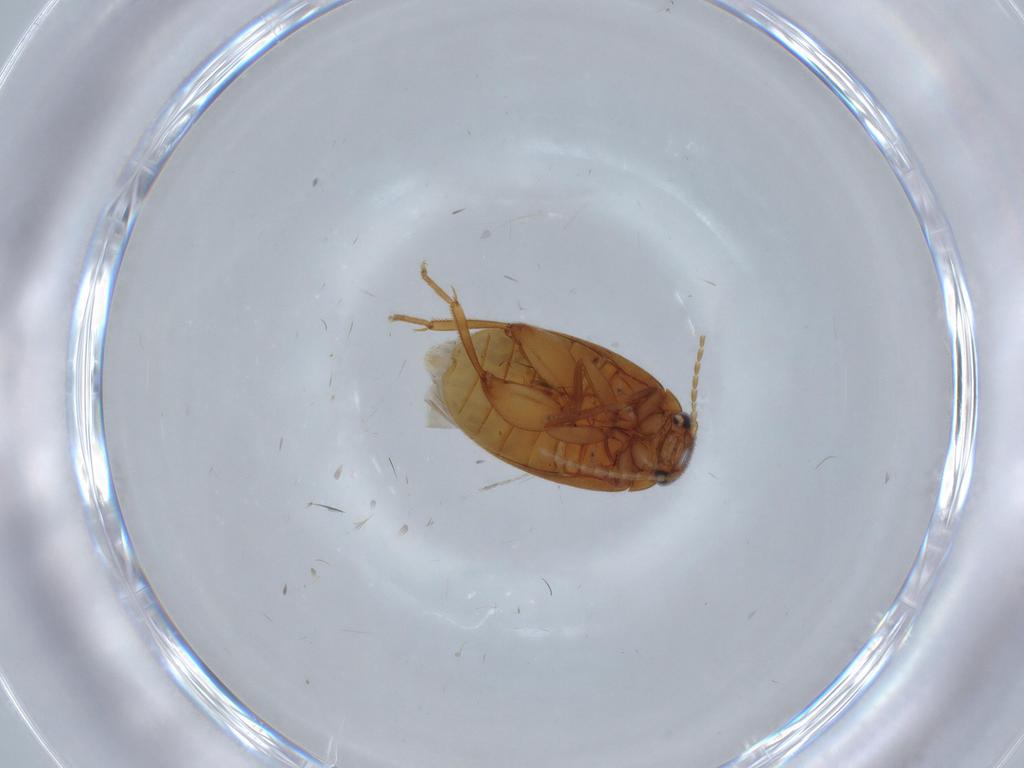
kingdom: Animalia
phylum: Arthropoda
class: Insecta
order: Coleoptera
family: Scirtidae
